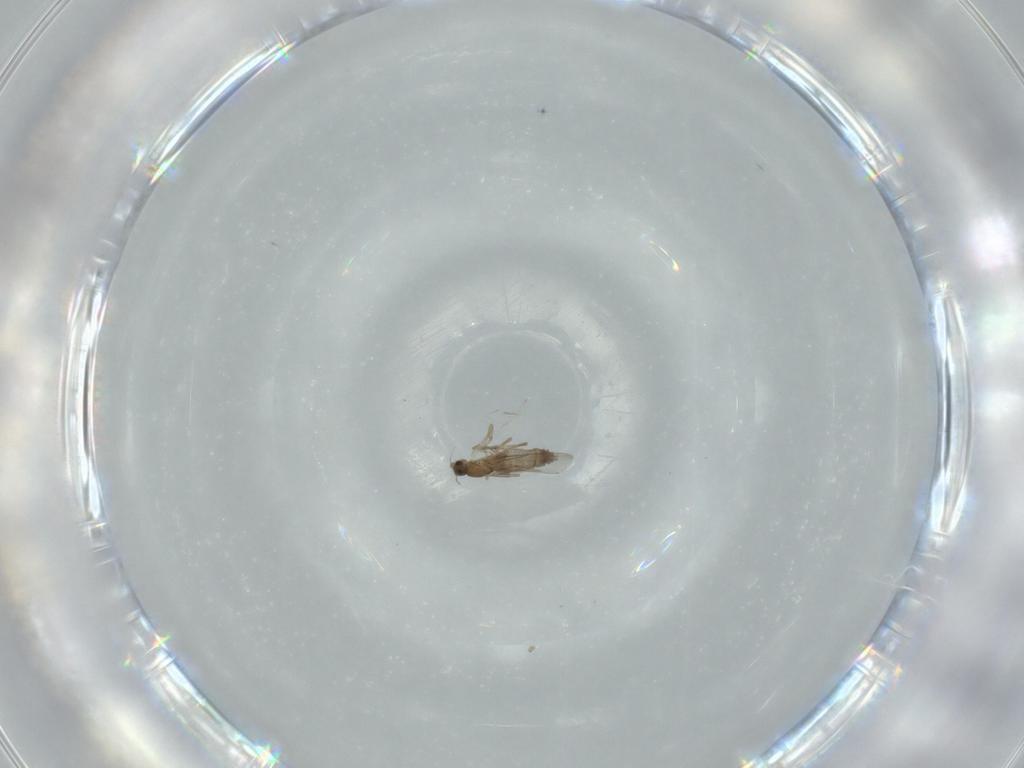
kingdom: Animalia
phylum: Arthropoda
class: Insecta
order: Diptera
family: Phoridae
